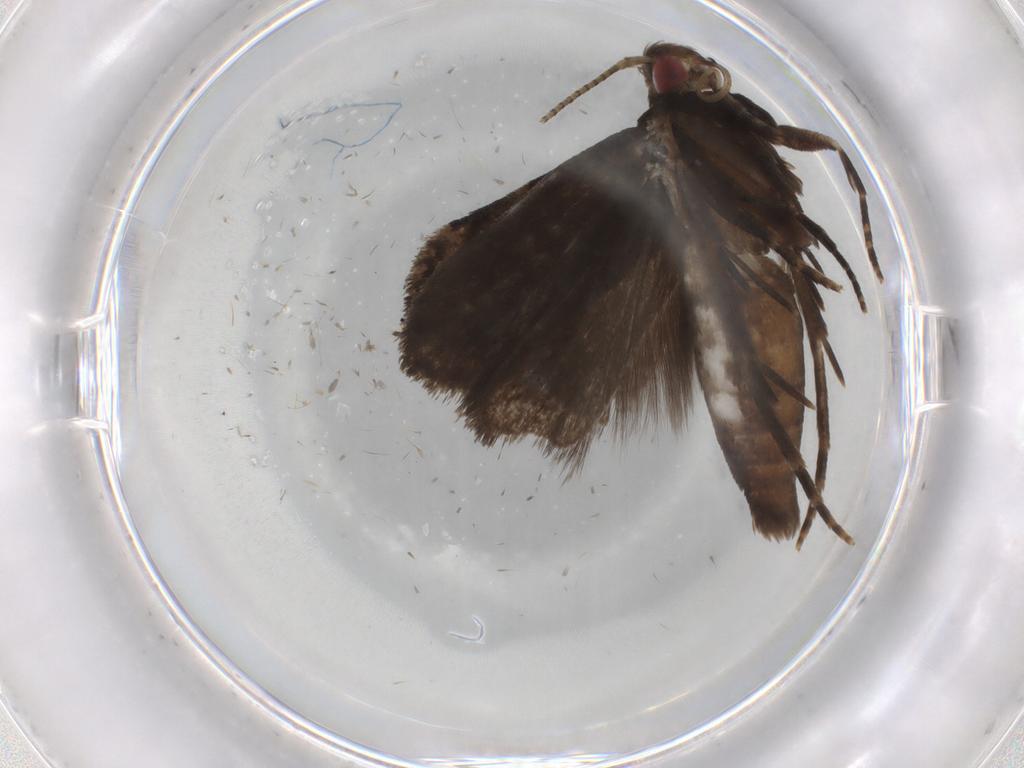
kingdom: Animalia
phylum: Arthropoda
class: Insecta
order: Lepidoptera
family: Gelechiidae
